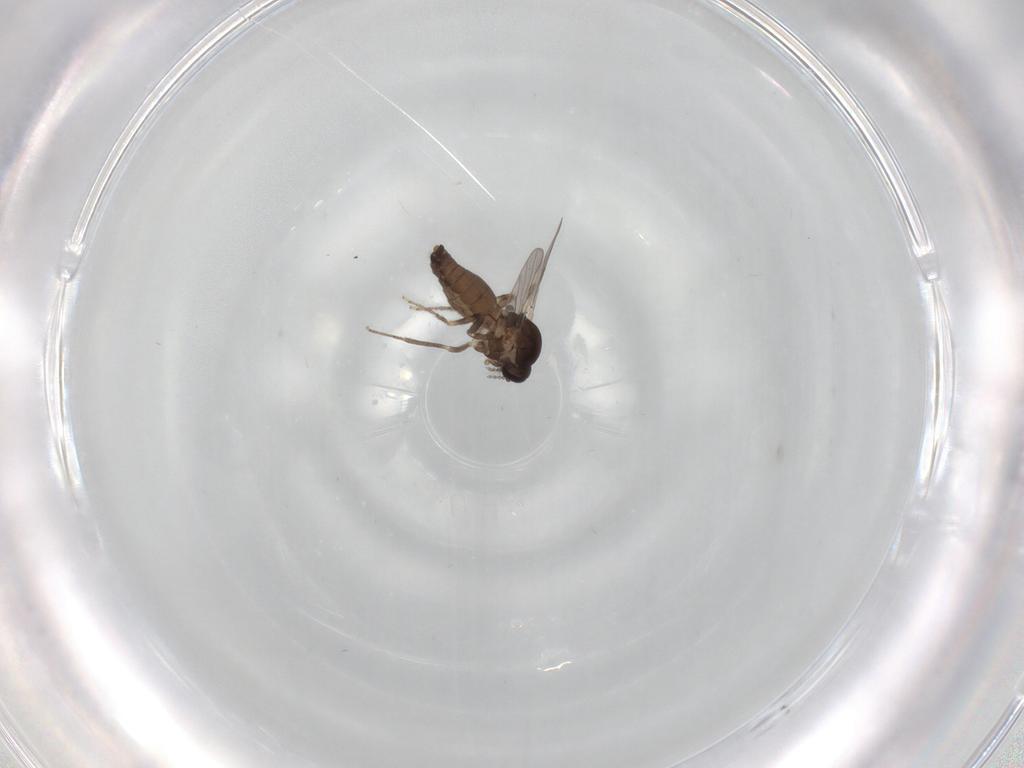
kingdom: Animalia
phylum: Arthropoda
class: Insecta
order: Diptera
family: Ceratopogonidae
